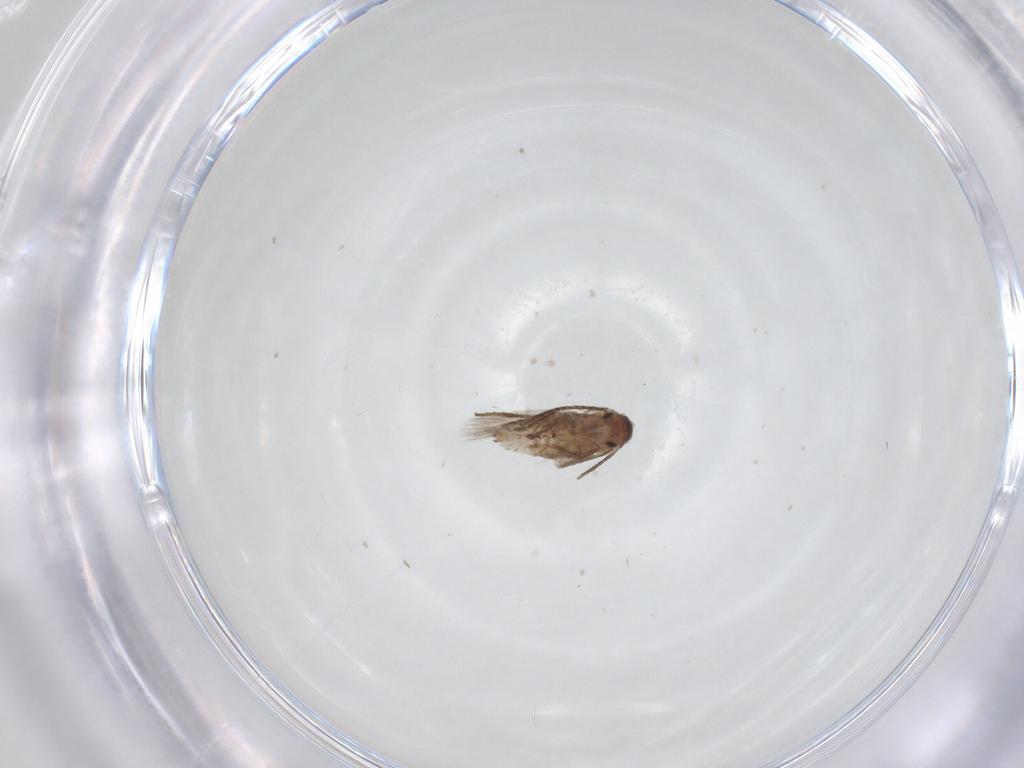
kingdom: Animalia
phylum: Arthropoda
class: Insecta
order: Lepidoptera
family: Lyonetiidae
